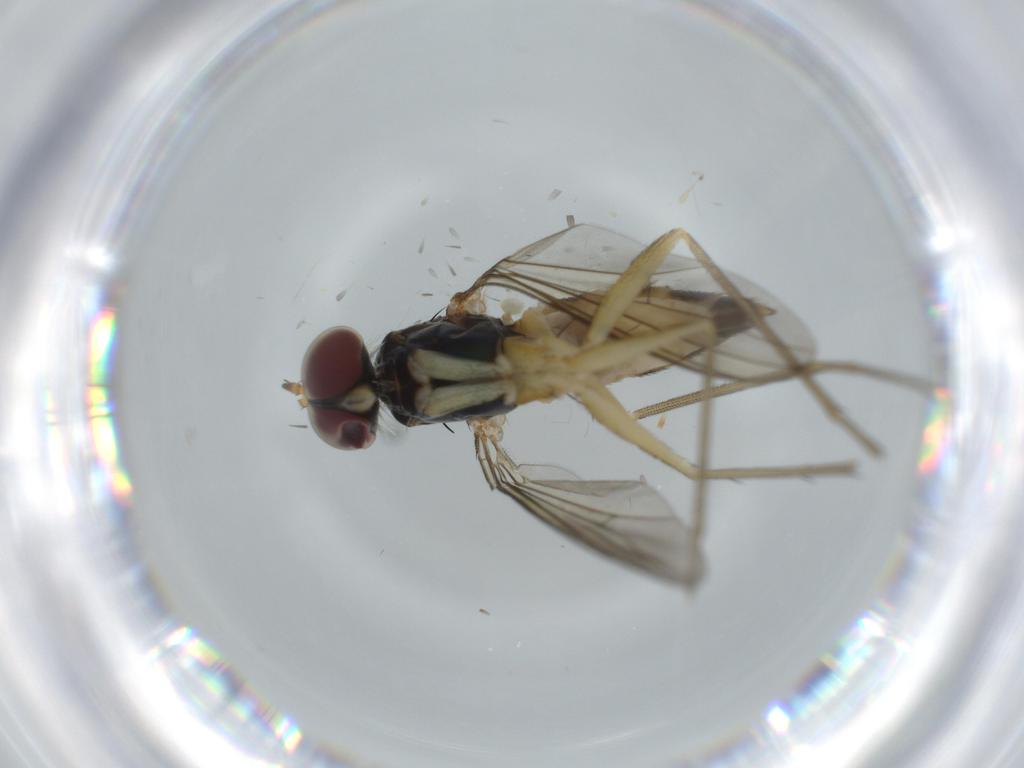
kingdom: Animalia
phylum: Arthropoda
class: Insecta
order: Diptera
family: Dolichopodidae
